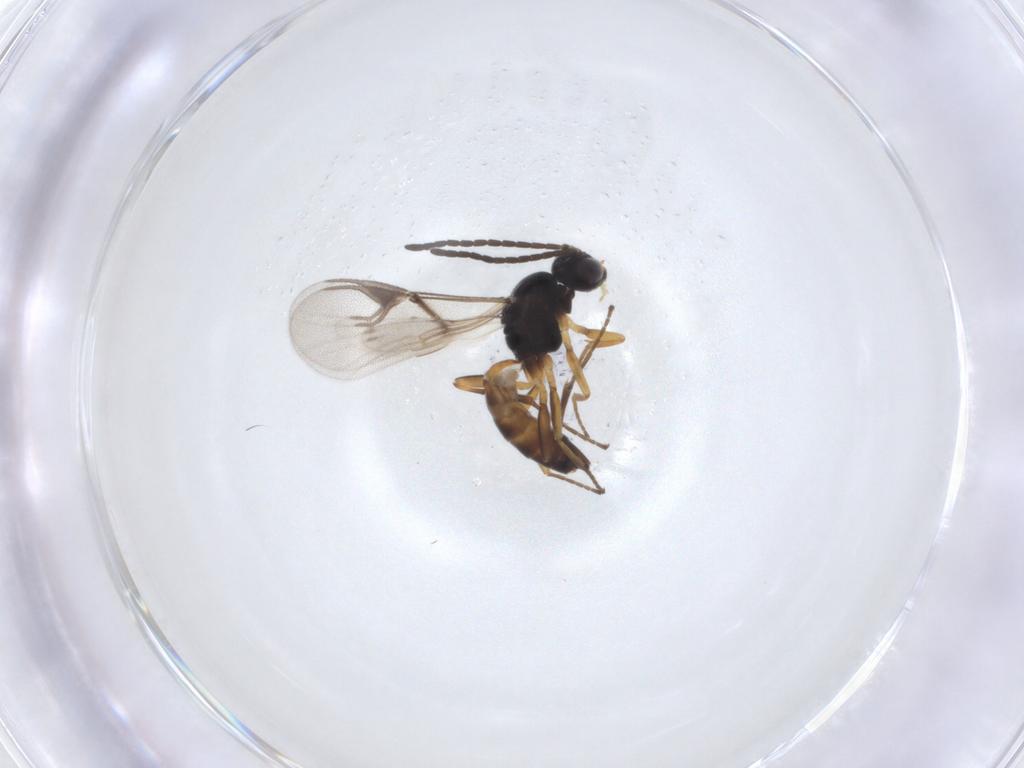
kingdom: Animalia
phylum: Arthropoda
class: Insecta
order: Hymenoptera
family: Braconidae
